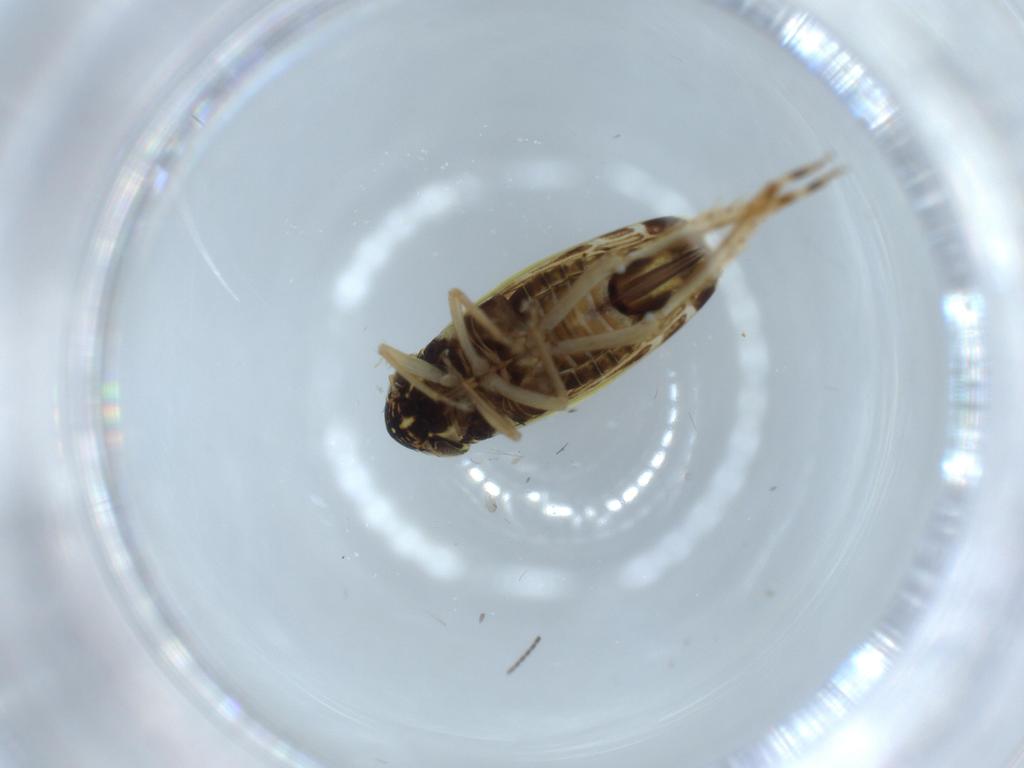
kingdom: Animalia
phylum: Arthropoda
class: Insecta
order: Hemiptera
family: Cicadellidae
